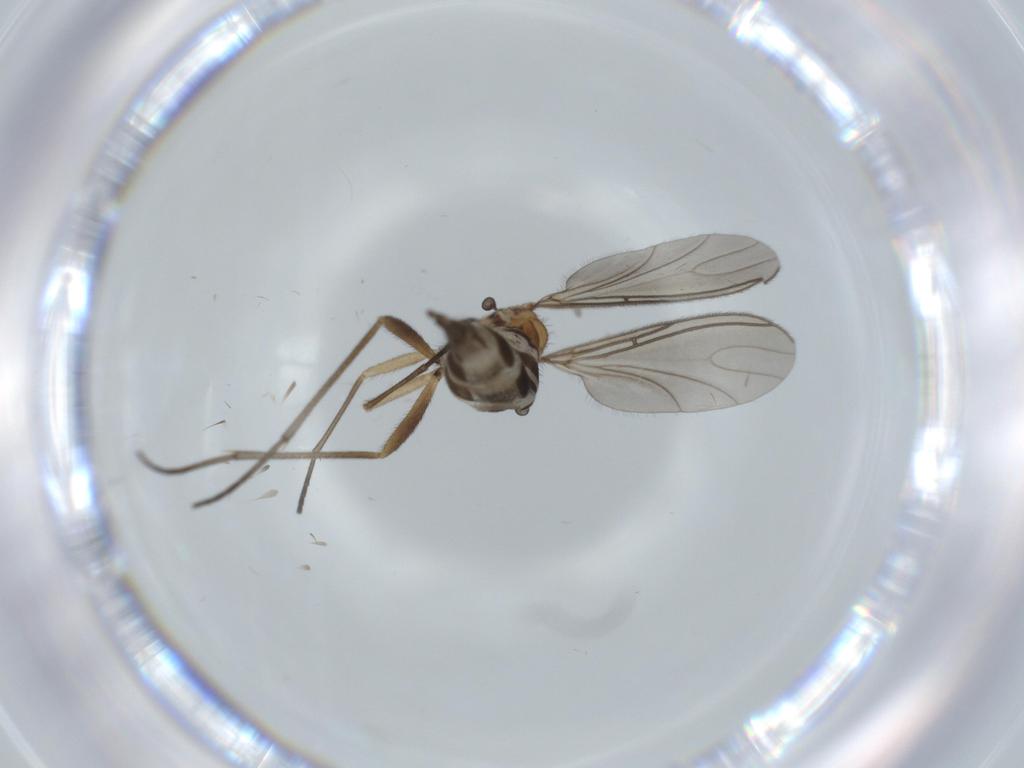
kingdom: Animalia
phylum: Arthropoda
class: Insecta
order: Diptera
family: Sciaridae
